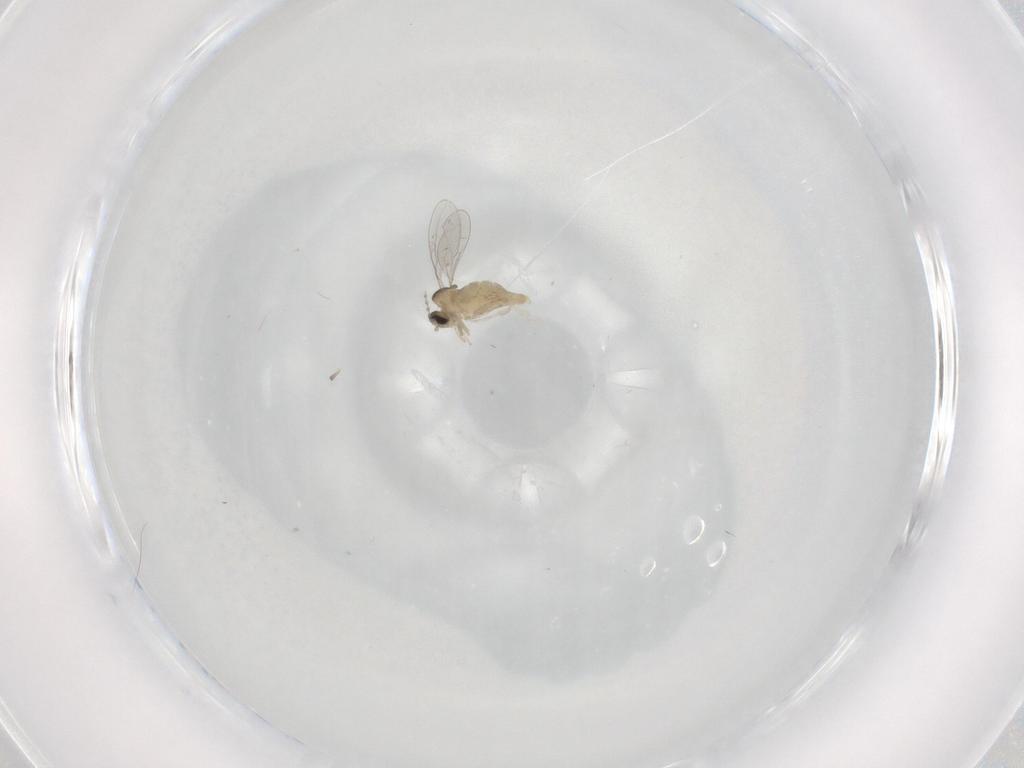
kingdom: Animalia
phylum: Arthropoda
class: Insecta
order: Diptera
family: Cecidomyiidae
